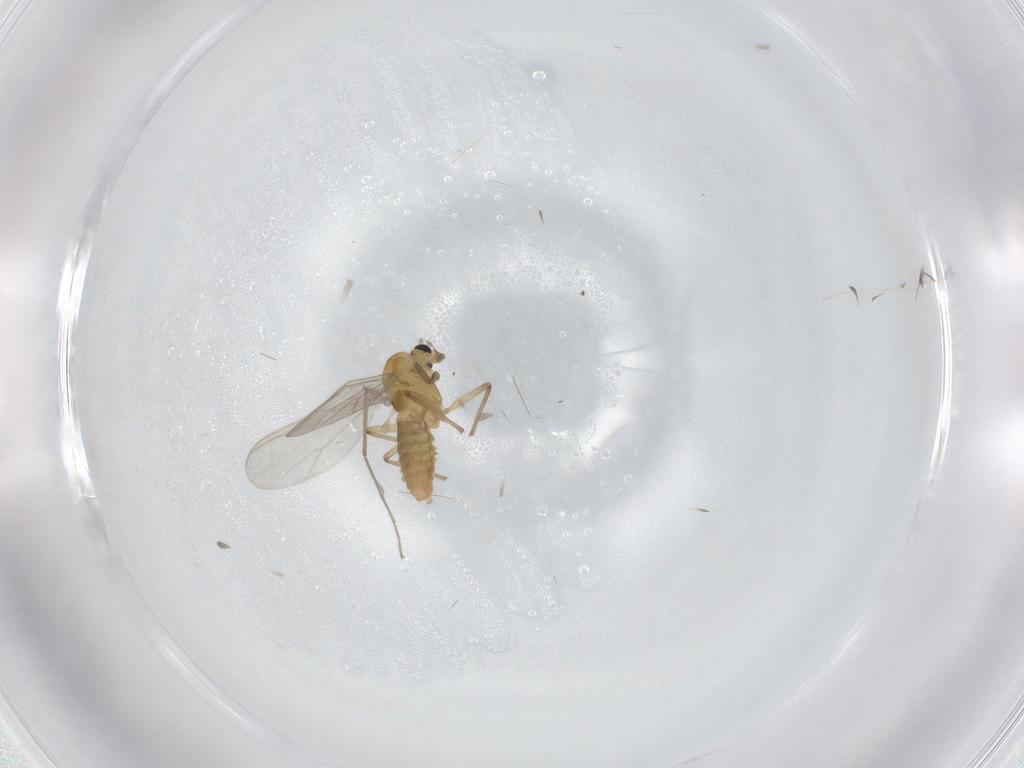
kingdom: Animalia
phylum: Arthropoda
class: Insecta
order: Diptera
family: Chironomidae
